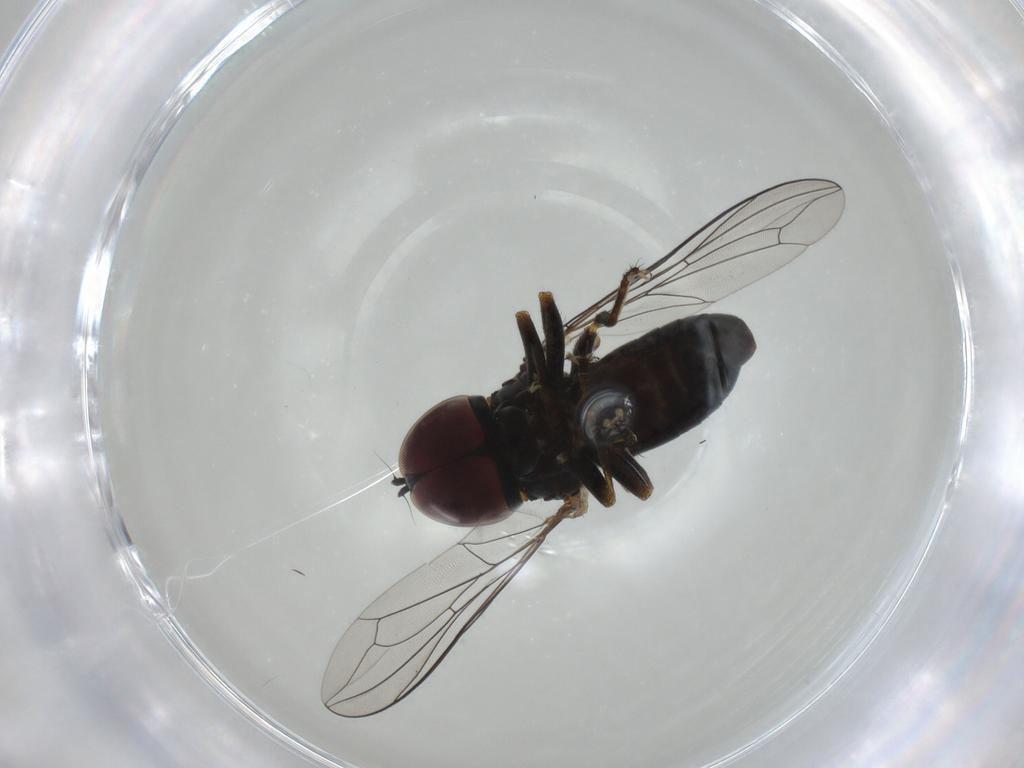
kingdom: Animalia
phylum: Arthropoda
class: Insecta
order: Diptera
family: Pipunculidae
